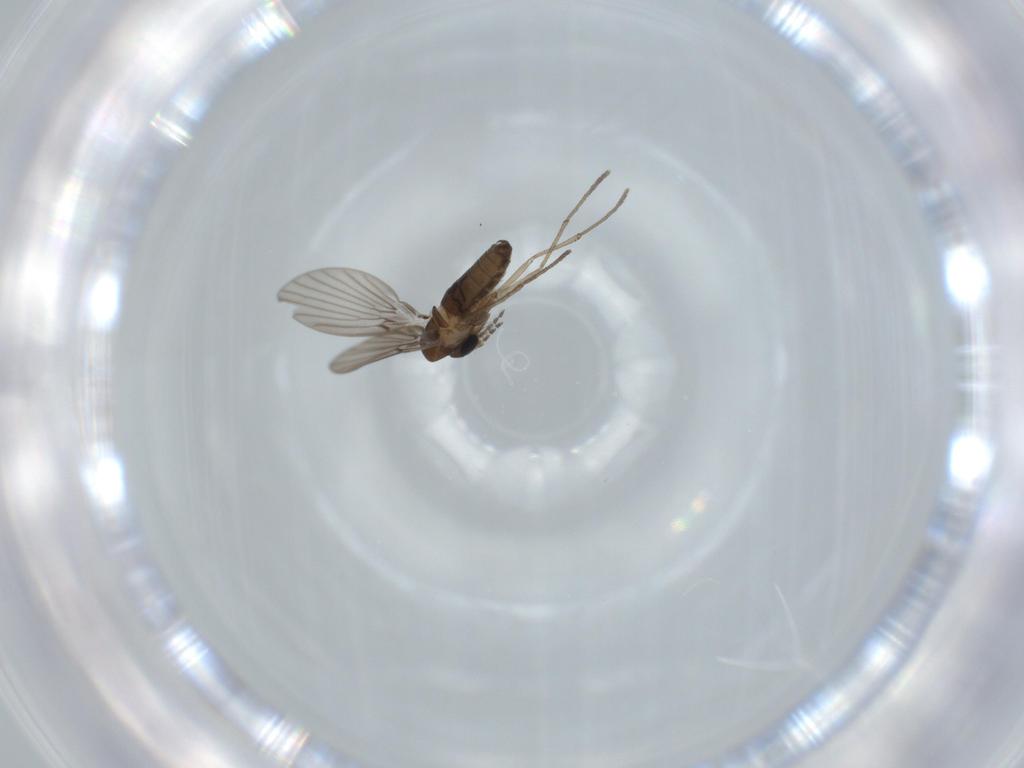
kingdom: Animalia
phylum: Arthropoda
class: Insecta
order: Diptera
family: Psychodidae
